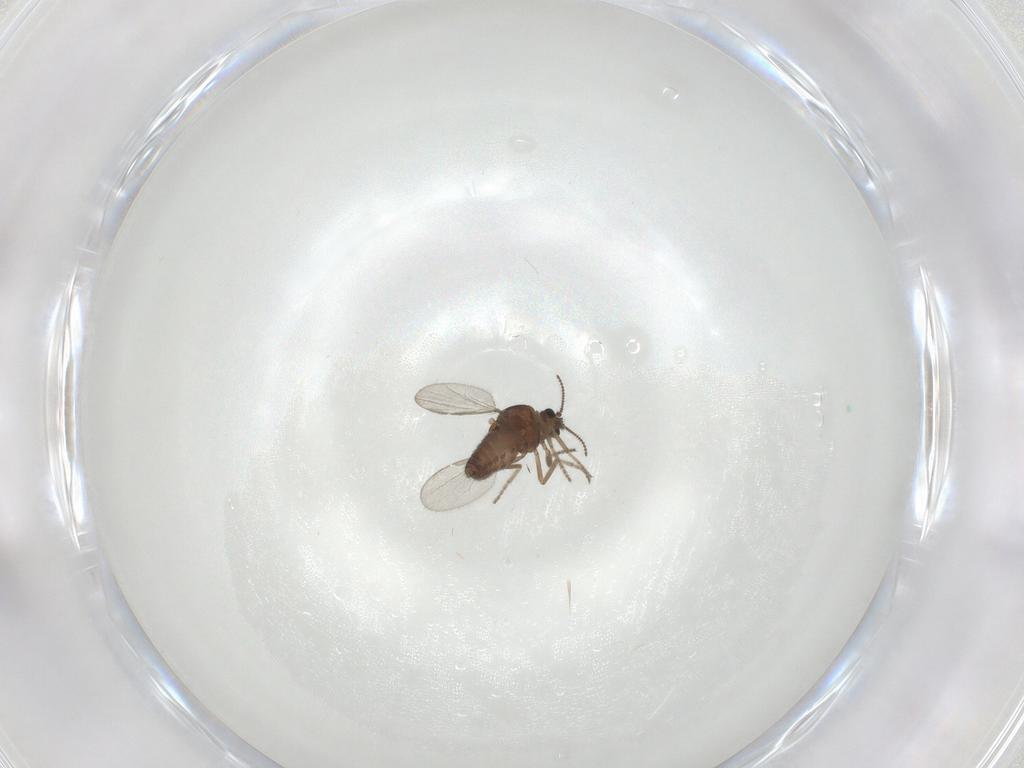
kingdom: Animalia
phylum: Arthropoda
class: Insecta
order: Diptera
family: Ceratopogonidae
